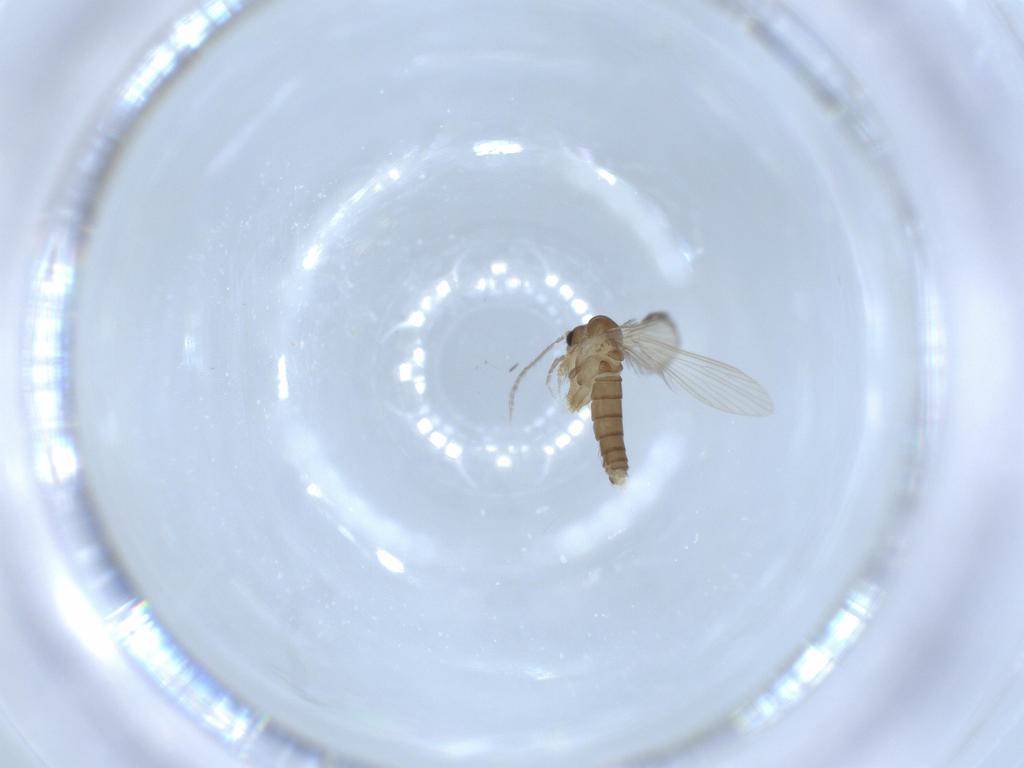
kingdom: Animalia
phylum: Arthropoda
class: Insecta
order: Diptera
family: Psychodidae
